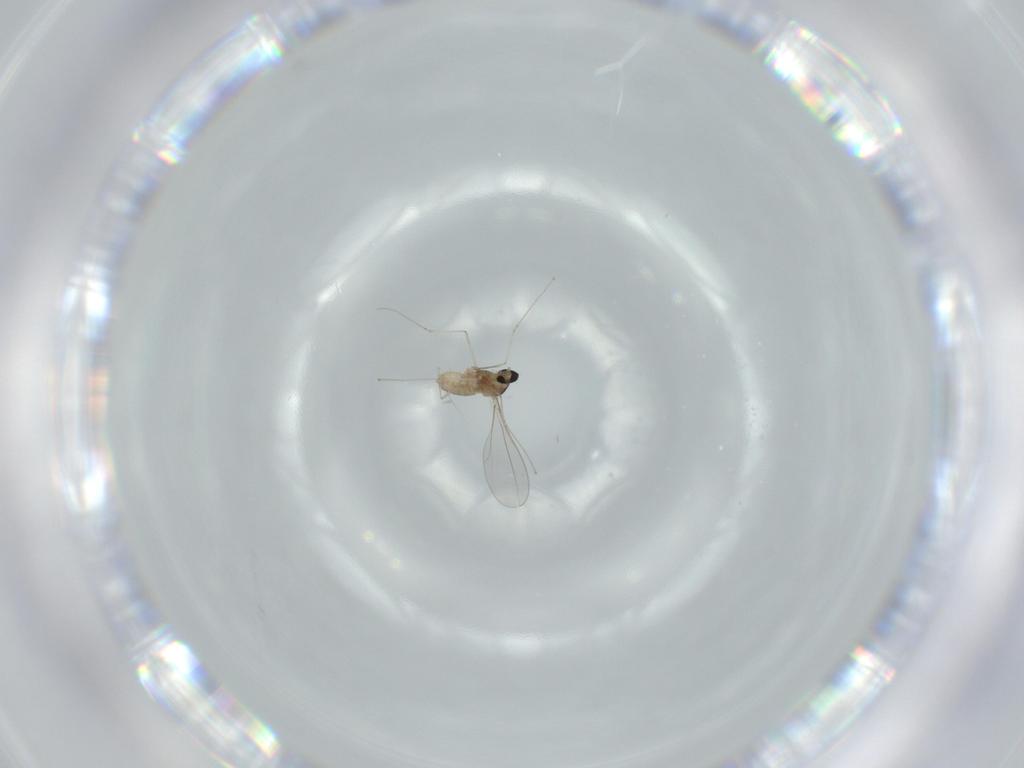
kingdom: Animalia
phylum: Arthropoda
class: Insecta
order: Diptera
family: Cecidomyiidae
